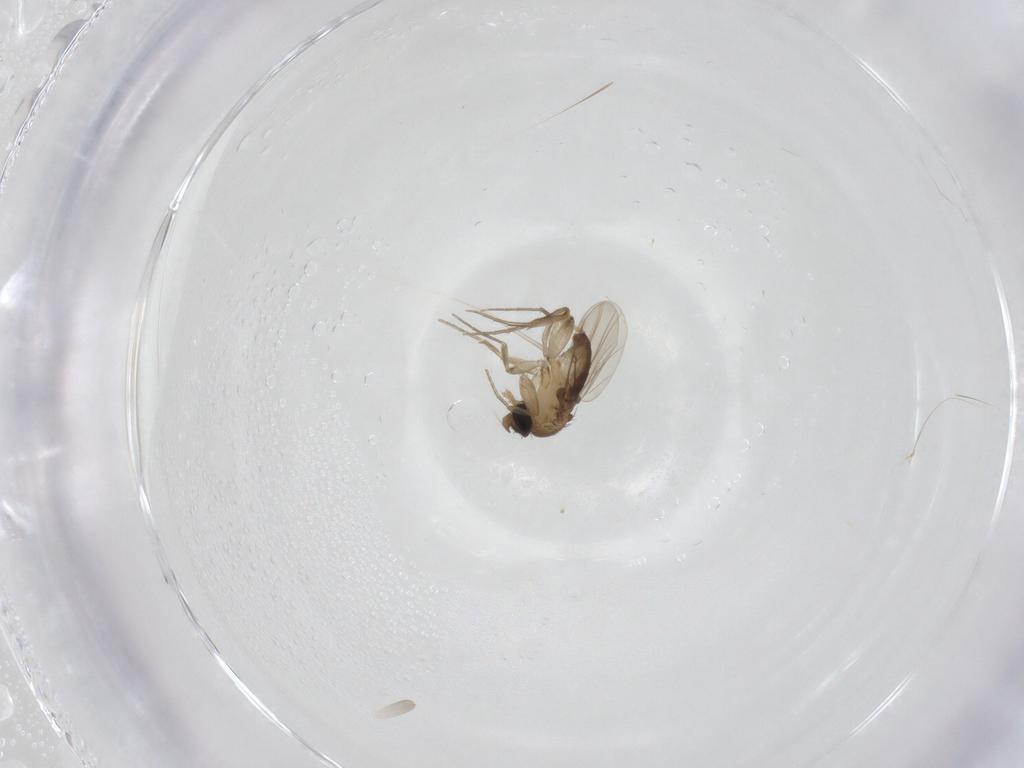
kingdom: Animalia
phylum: Arthropoda
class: Insecta
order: Diptera
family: Phoridae
